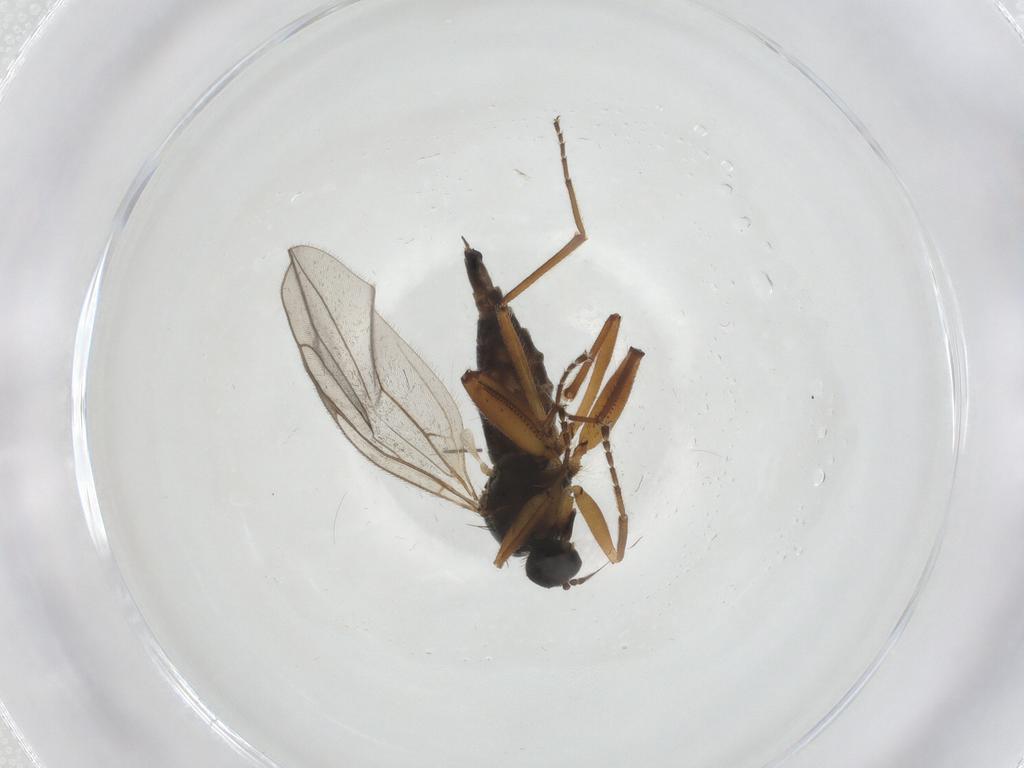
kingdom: Animalia
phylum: Arthropoda
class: Insecta
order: Diptera
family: Hybotidae
